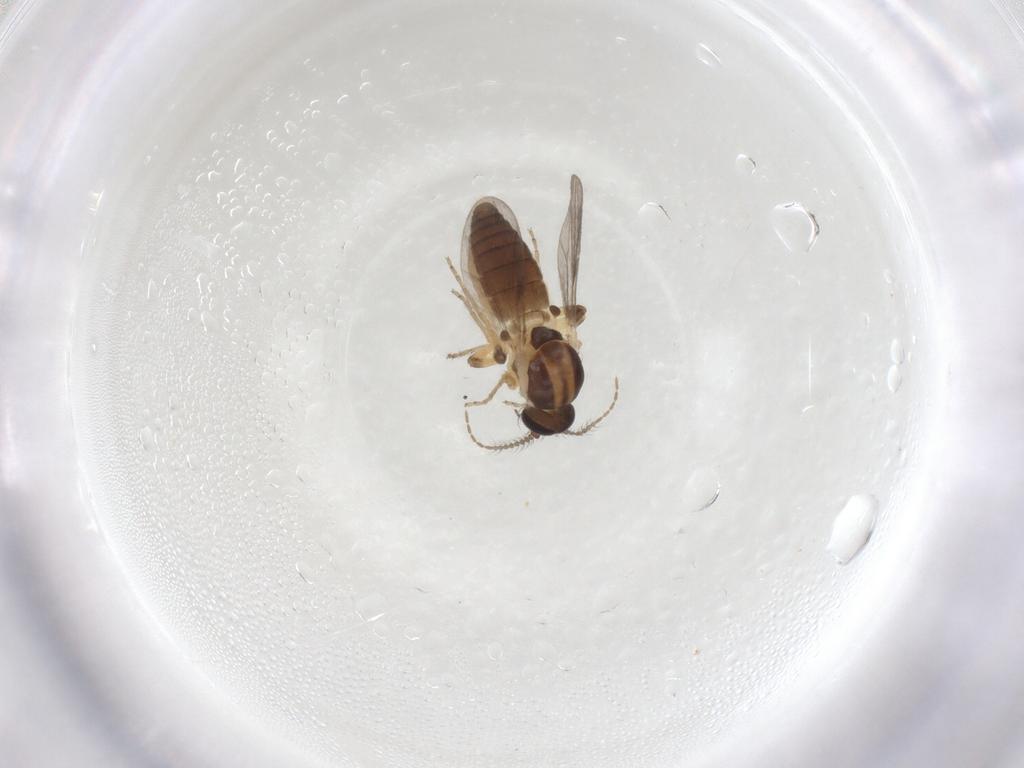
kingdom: Animalia
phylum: Arthropoda
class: Insecta
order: Diptera
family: Ceratopogonidae
